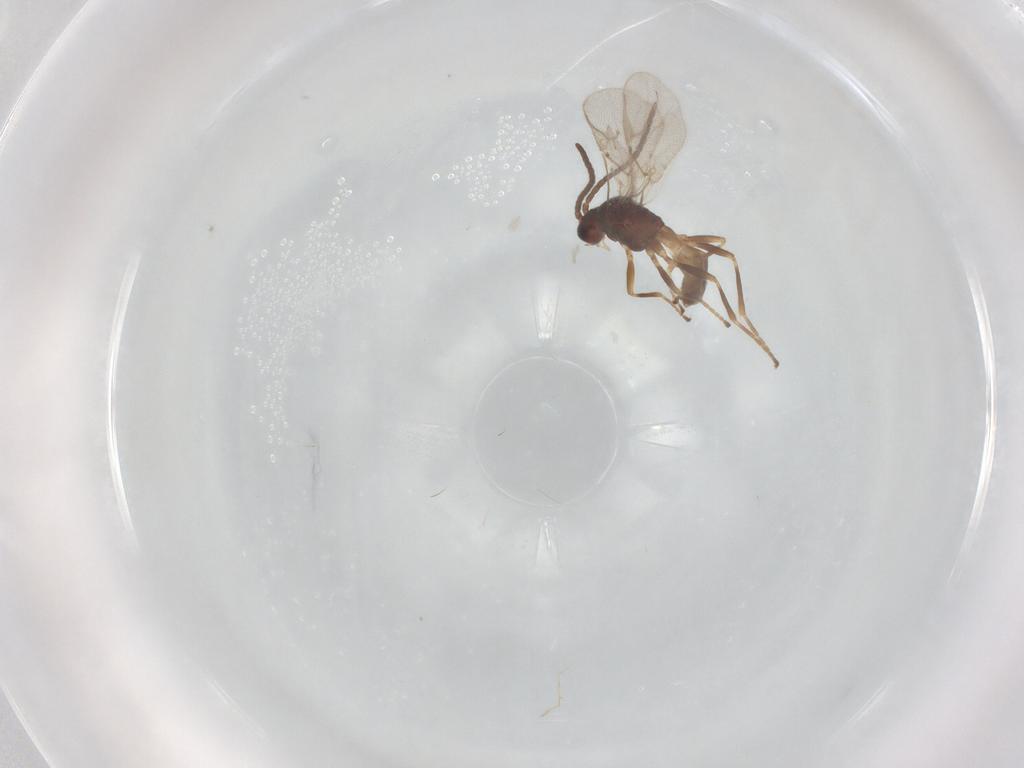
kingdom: Animalia
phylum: Arthropoda
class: Insecta
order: Hymenoptera
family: Braconidae
